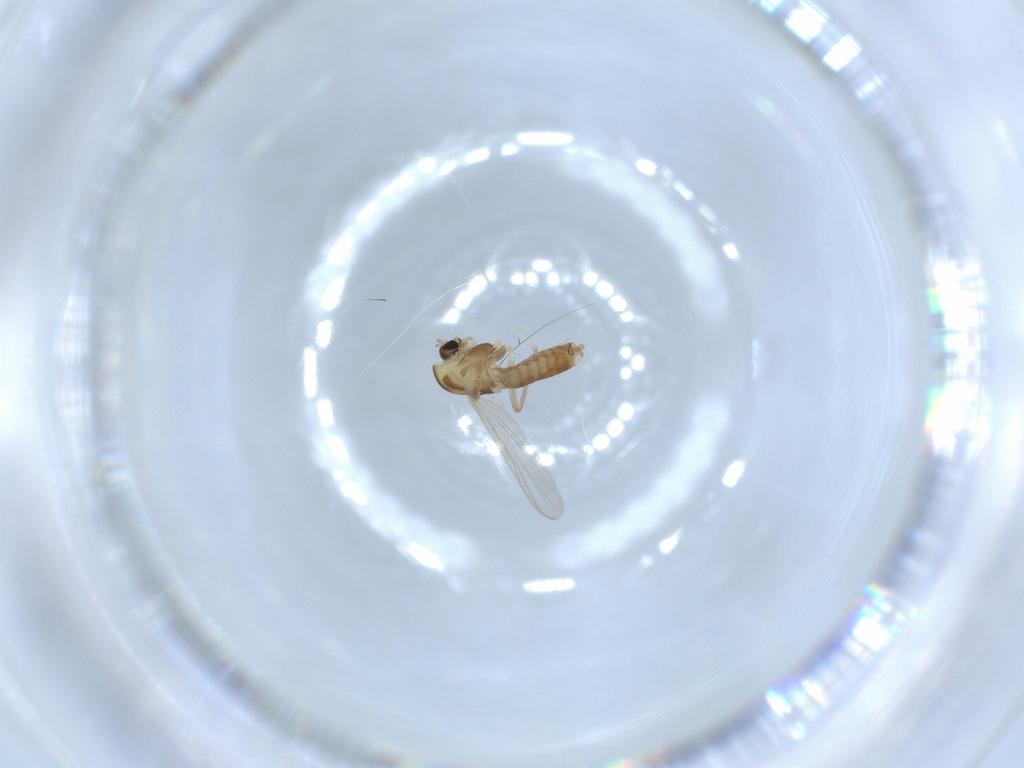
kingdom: Animalia
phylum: Arthropoda
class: Insecta
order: Diptera
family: Chironomidae
